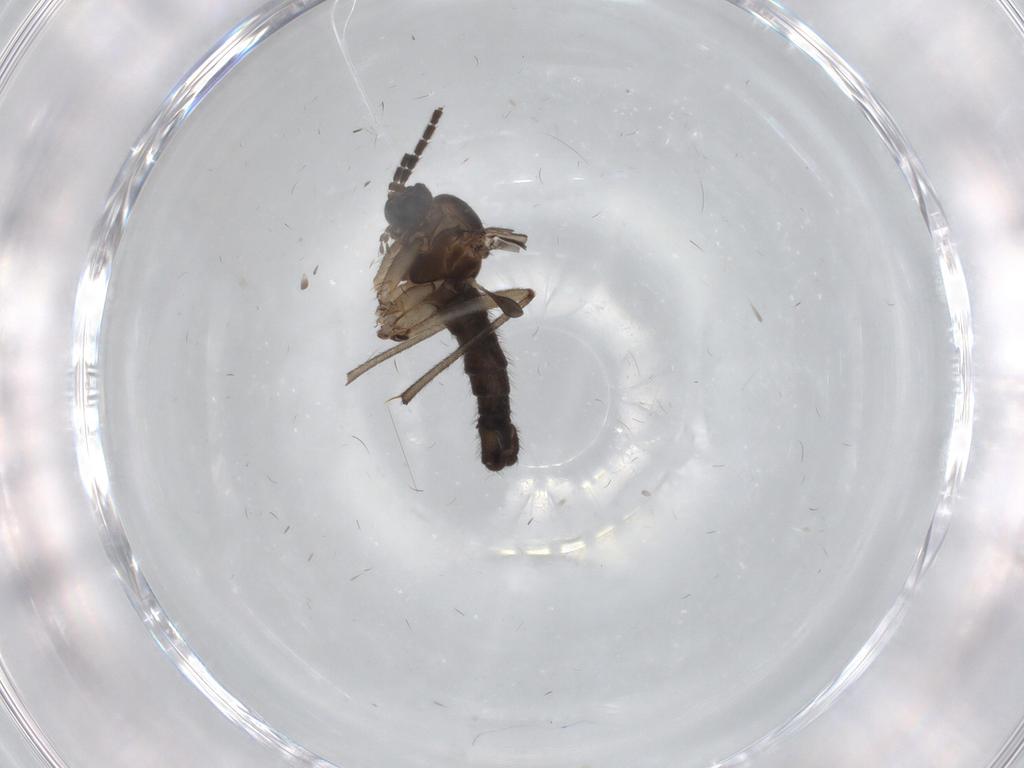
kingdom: Animalia
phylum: Arthropoda
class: Insecta
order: Diptera
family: Sciaridae
